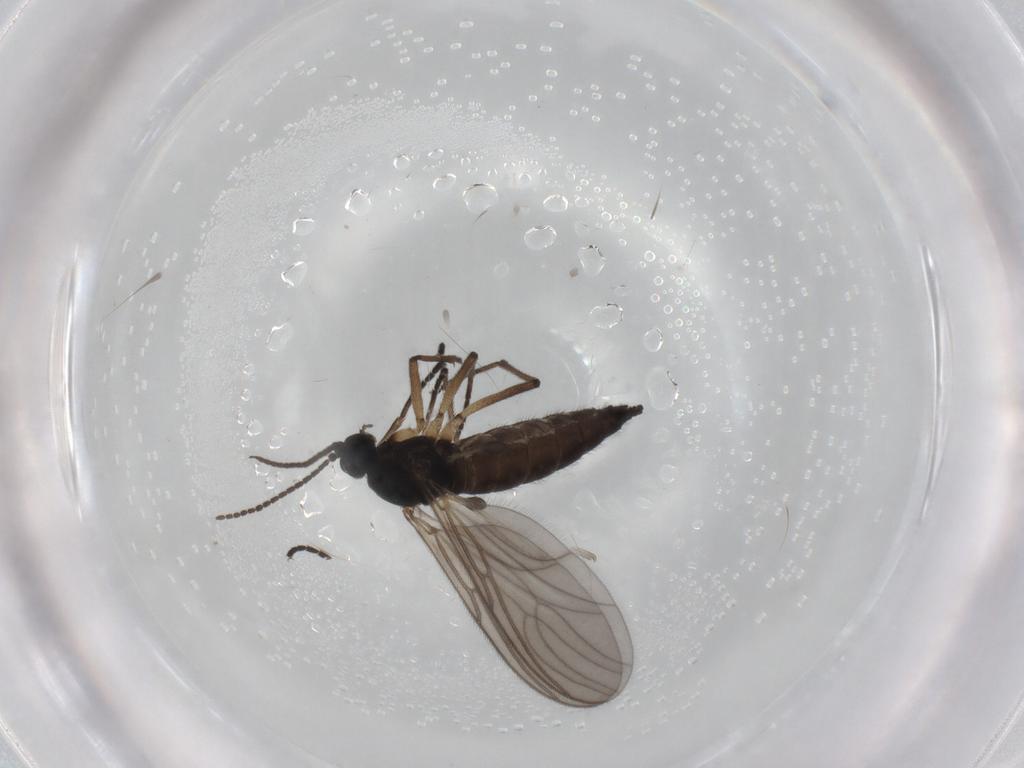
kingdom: Animalia
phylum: Arthropoda
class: Insecta
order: Diptera
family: Sciaridae
